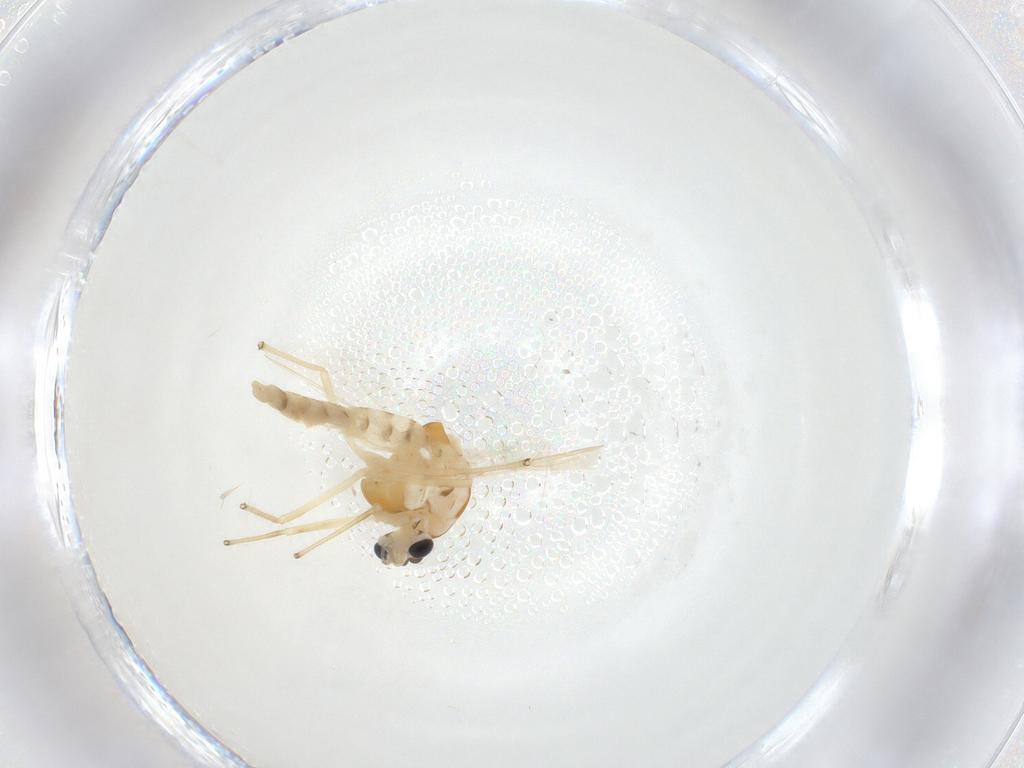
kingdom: Animalia
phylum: Arthropoda
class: Insecta
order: Diptera
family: Chironomidae
